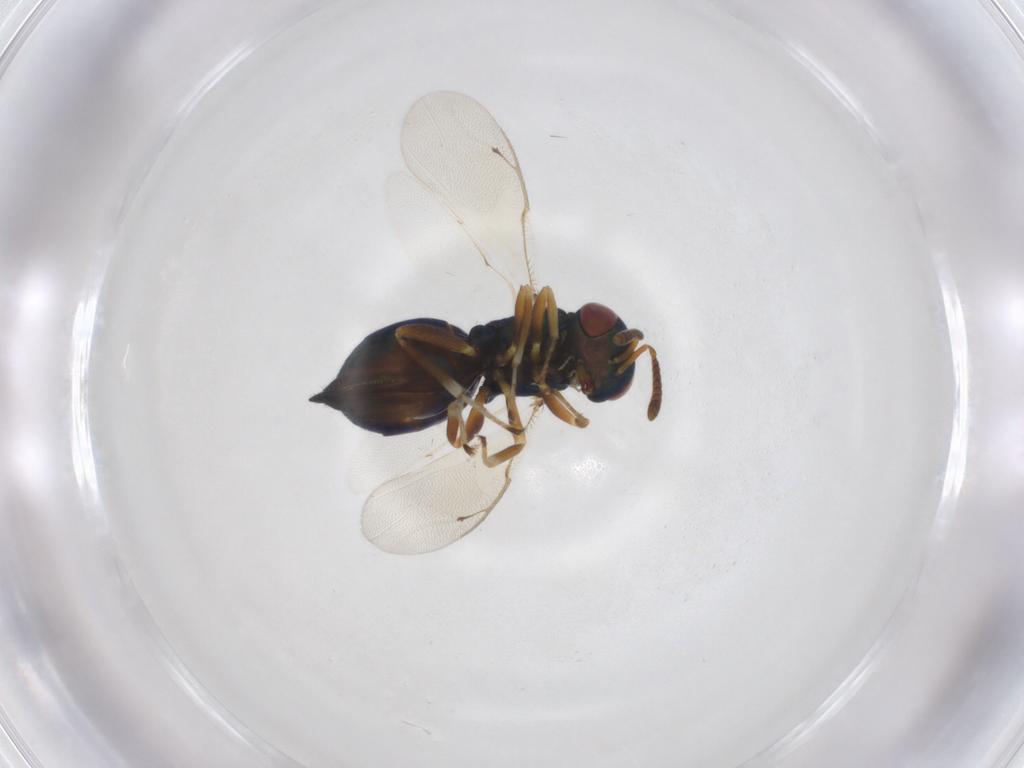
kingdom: Animalia
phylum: Arthropoda
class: Insecta
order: Hymenoptera
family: Pteromalidae
